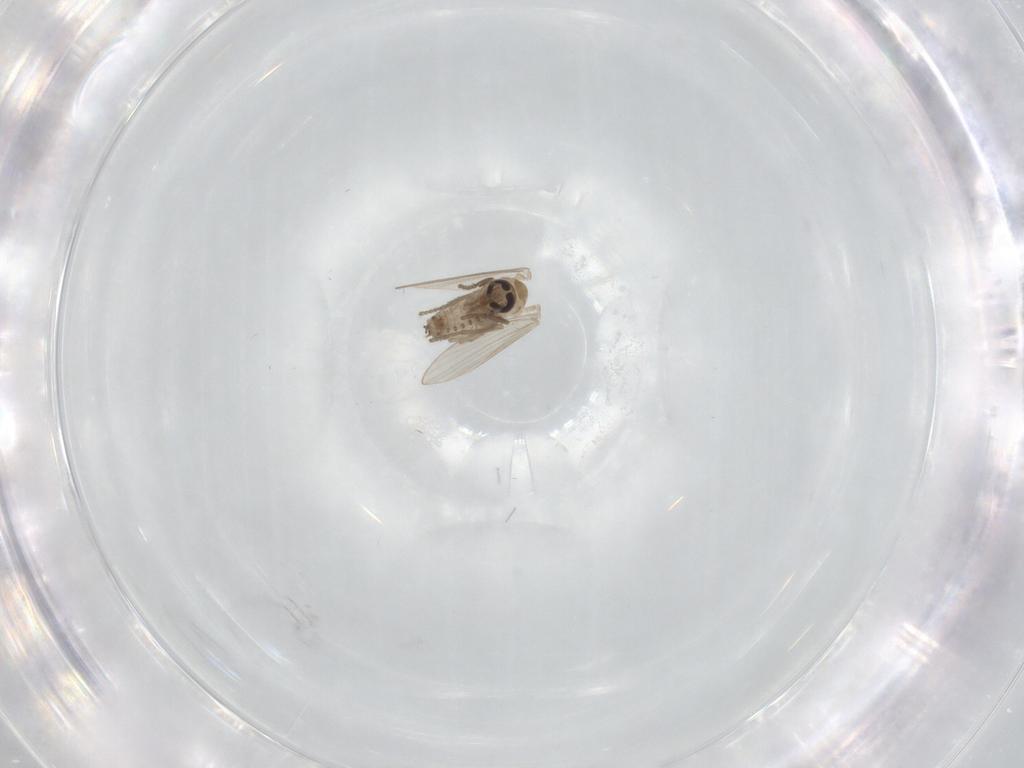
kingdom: Animalia
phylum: Arthropoda
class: Insecta
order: Diptera
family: Psychodidae
